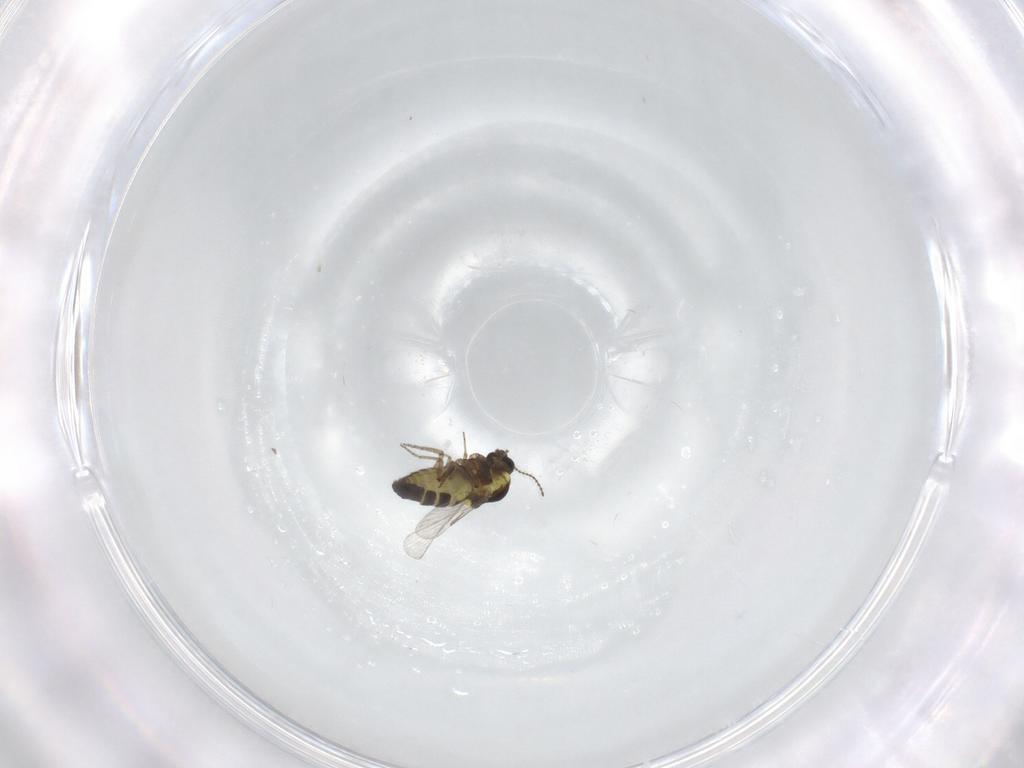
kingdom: Animalia
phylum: Arthropoda
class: Insecta
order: Diptera
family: Ceratopogonidae
